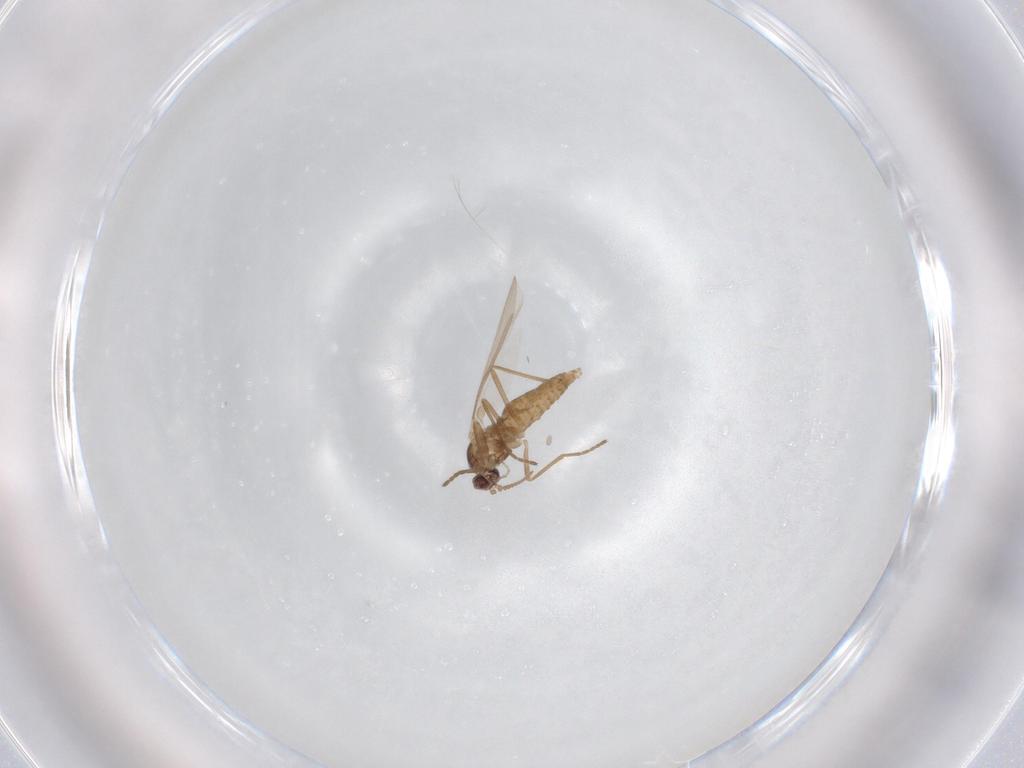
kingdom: Animalia
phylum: Arthropoda
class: Insecta
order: Diptera
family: Cecidomyiidae
